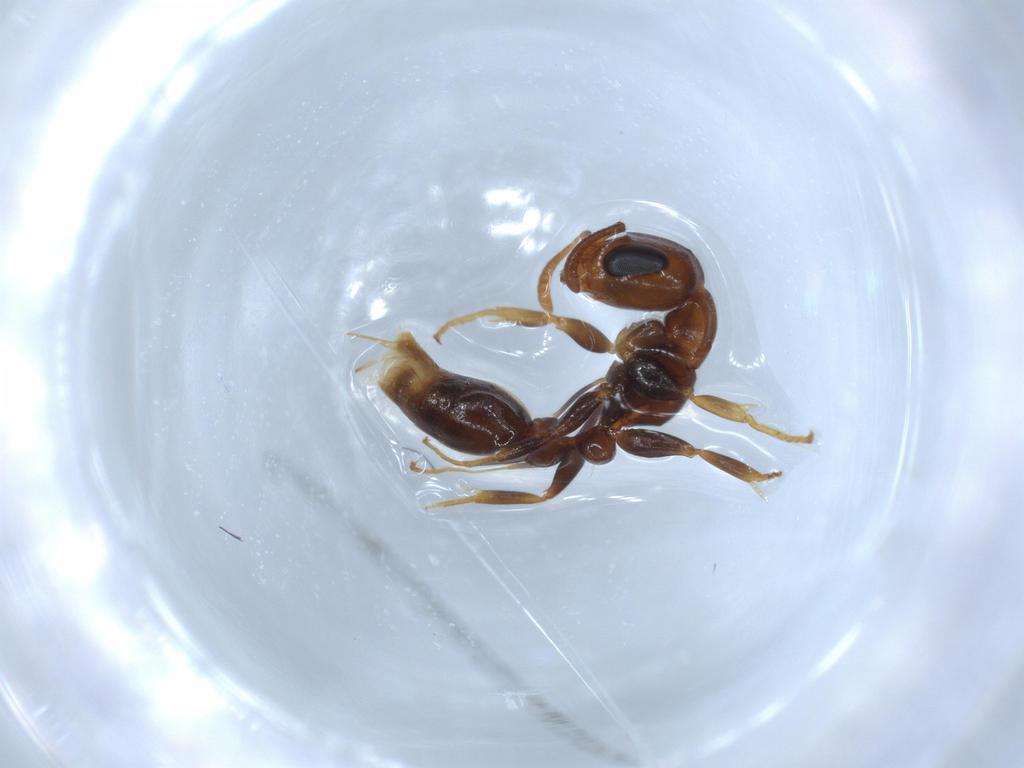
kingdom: Animalia
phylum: Arthropoda
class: Insecta
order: Hymenoptera
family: Formicidae
